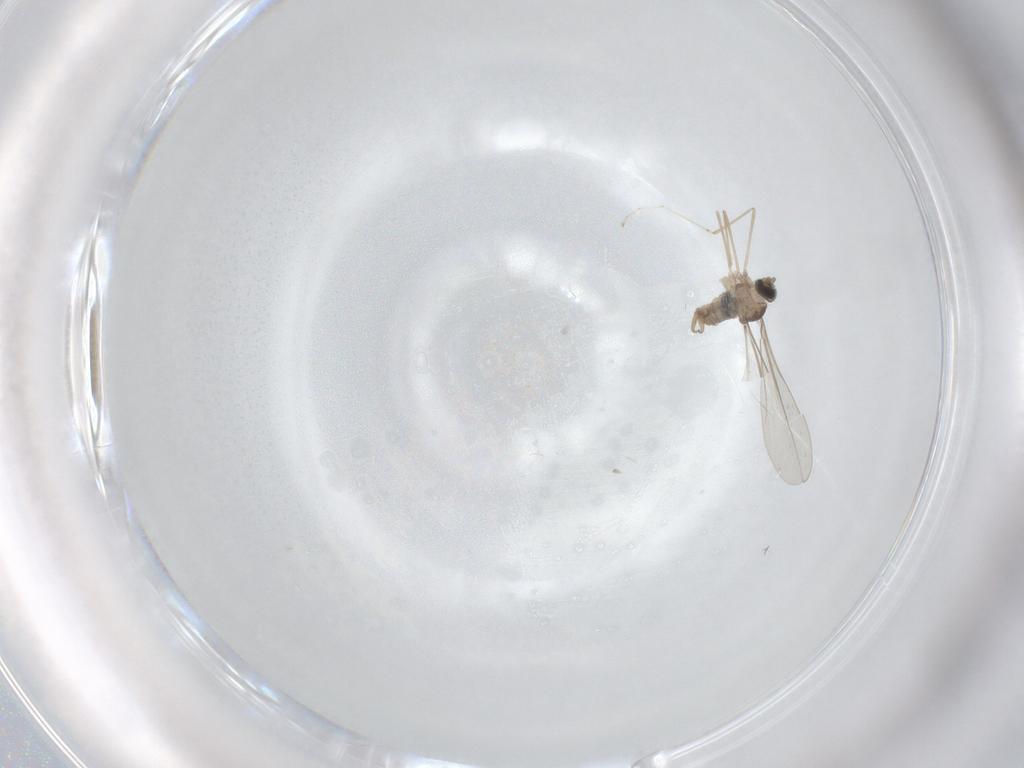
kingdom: Animalia
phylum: Arthropoda
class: Insecta
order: Diptera
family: Cecidomyiidae
